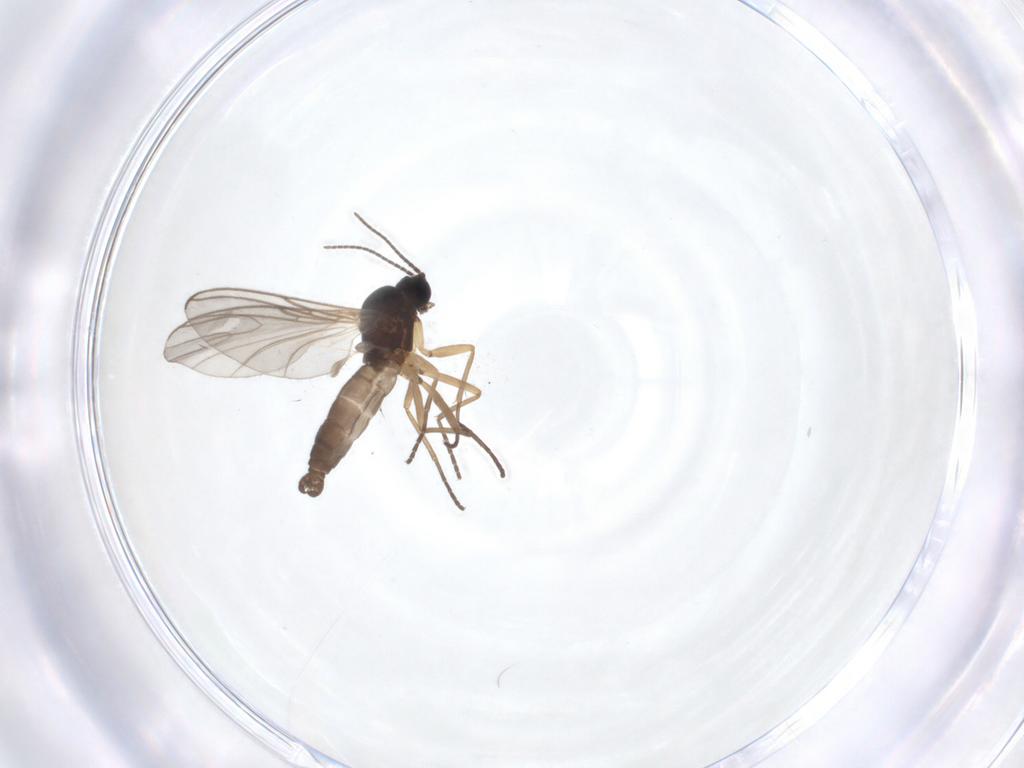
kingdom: Animalia
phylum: Arthropoda
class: Insecta
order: Diptera
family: Sciaridae
